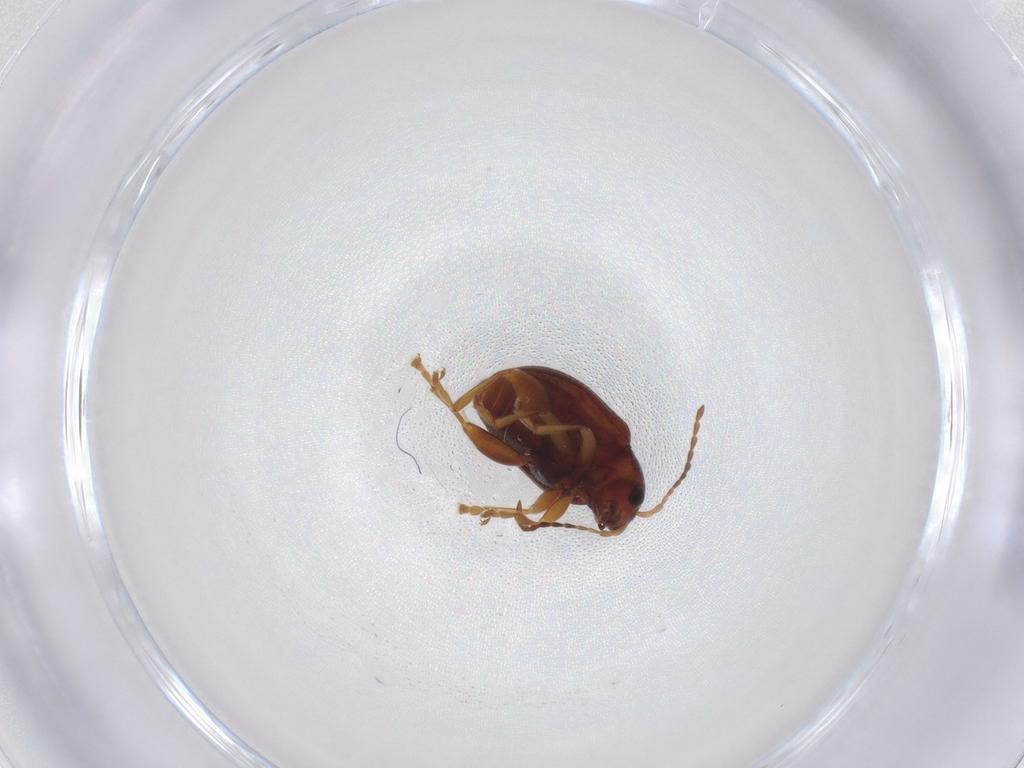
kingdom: Animalia
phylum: Arthropoda
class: Insecta
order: Coleoptera
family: Chrysomelidae
